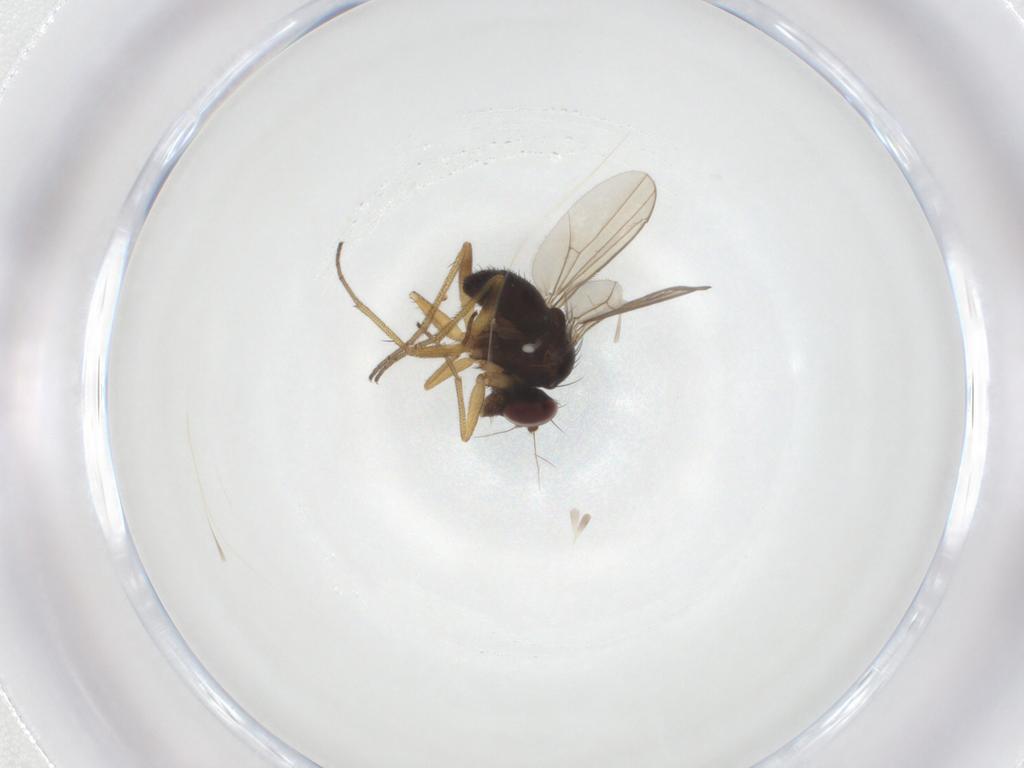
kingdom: Animalia
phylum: Arthropoda
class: Insecta
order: Diptera
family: Dolichopodidae
